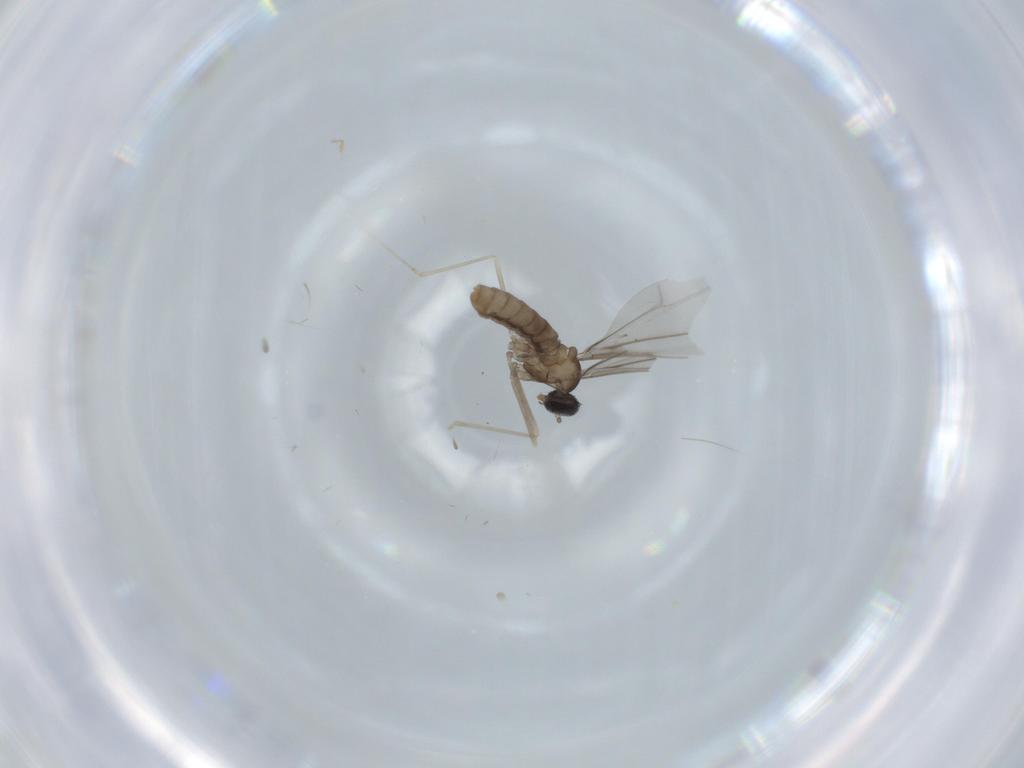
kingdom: Animalia
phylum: Arthropoda
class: Insecta
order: Diptera
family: Cecidomyiidae
